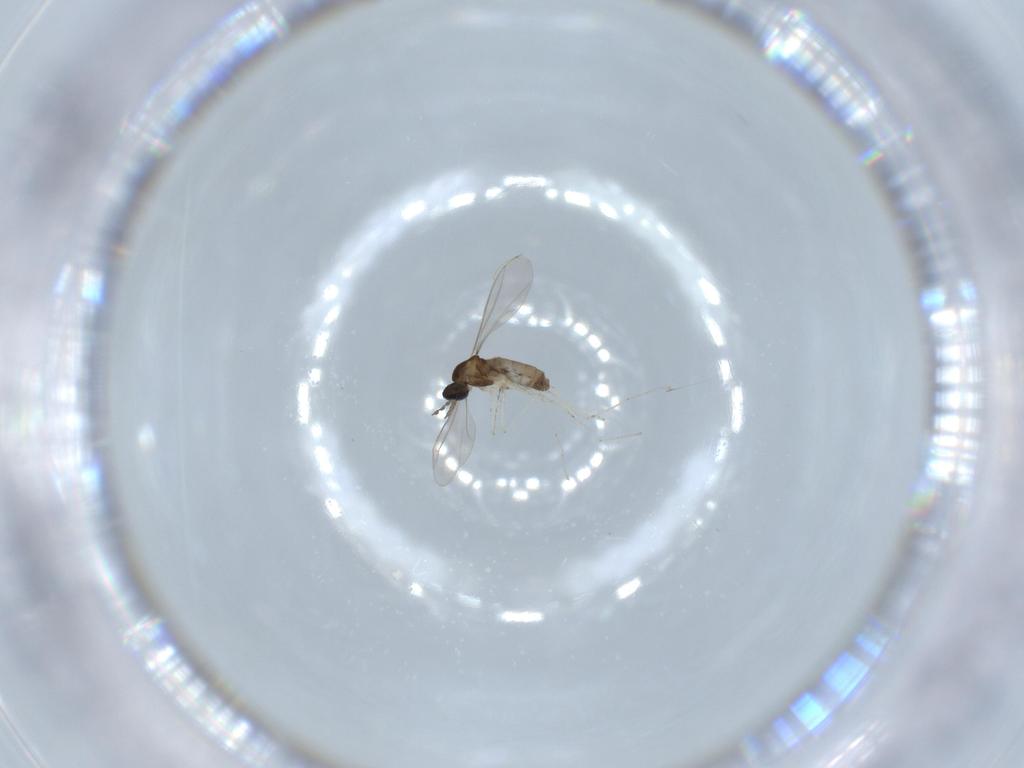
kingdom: Animalia
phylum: Arthropoda
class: Insecta
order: Diptera
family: Cecidomyiidae
